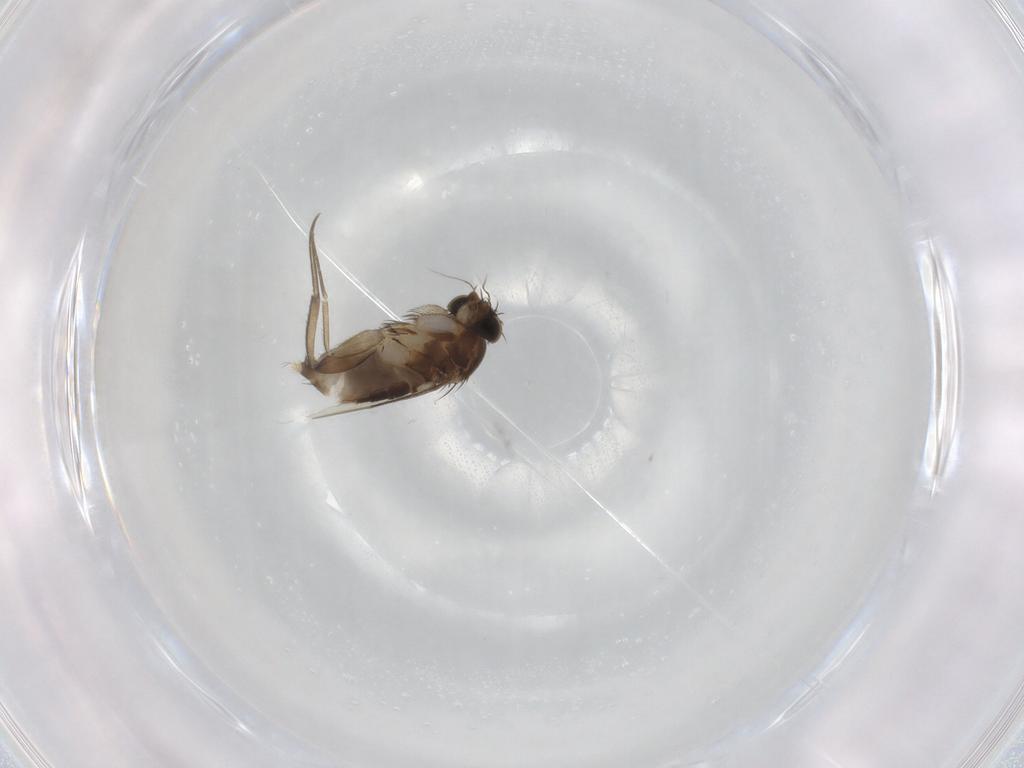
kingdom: Animalia
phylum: Arthropoda
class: Insecta
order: Diptera
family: Phoridae
